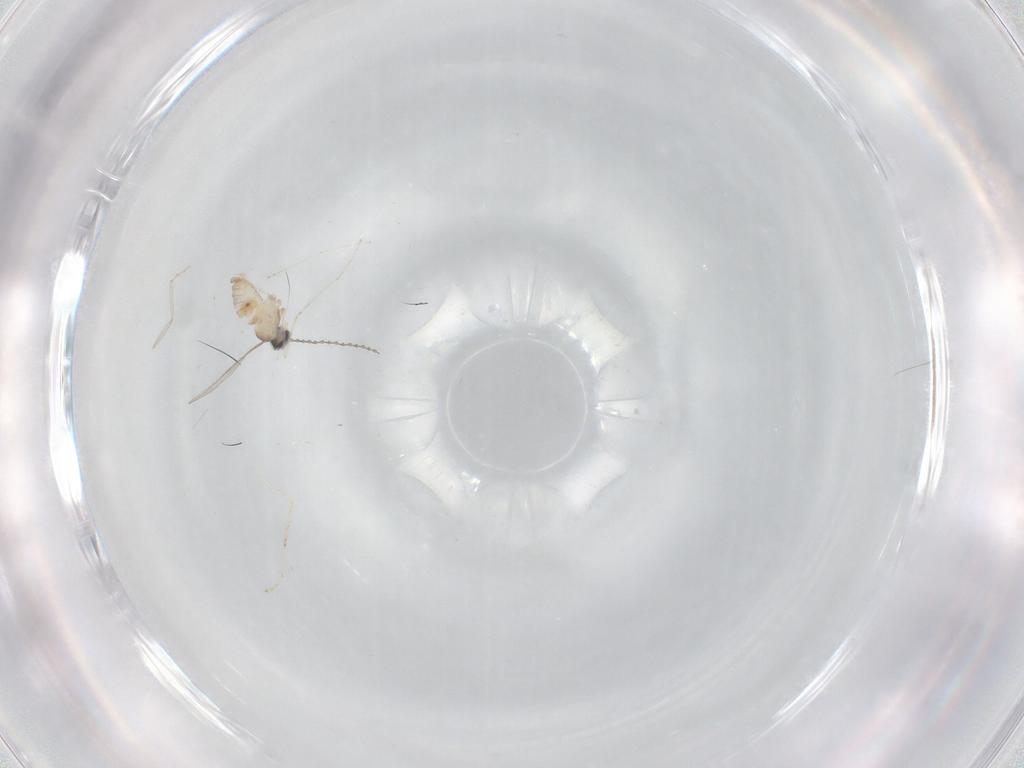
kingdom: Animalia
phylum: Arthropoda
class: Insecta
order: Diptera
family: Cecidomyiidae
